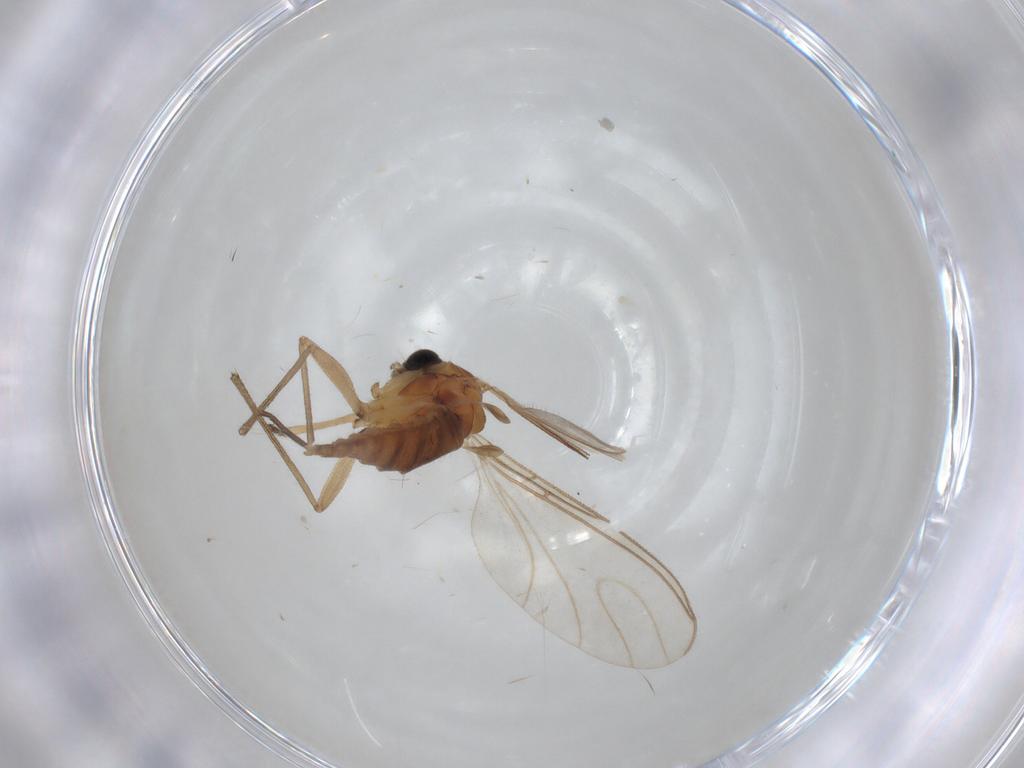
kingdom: Animalia
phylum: Arthropoda
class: Insecta
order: Diptera
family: Sciaridae
